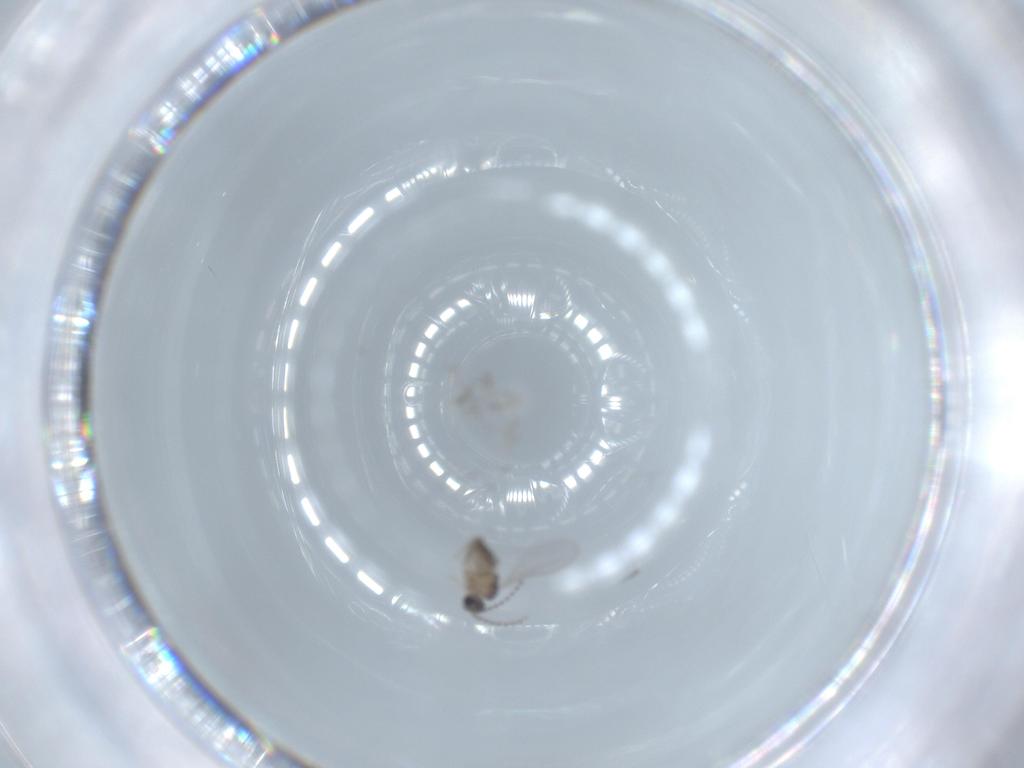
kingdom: Animalia
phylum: Arthropoda
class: Insecta
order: Diptera
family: Cecidomyiidae
